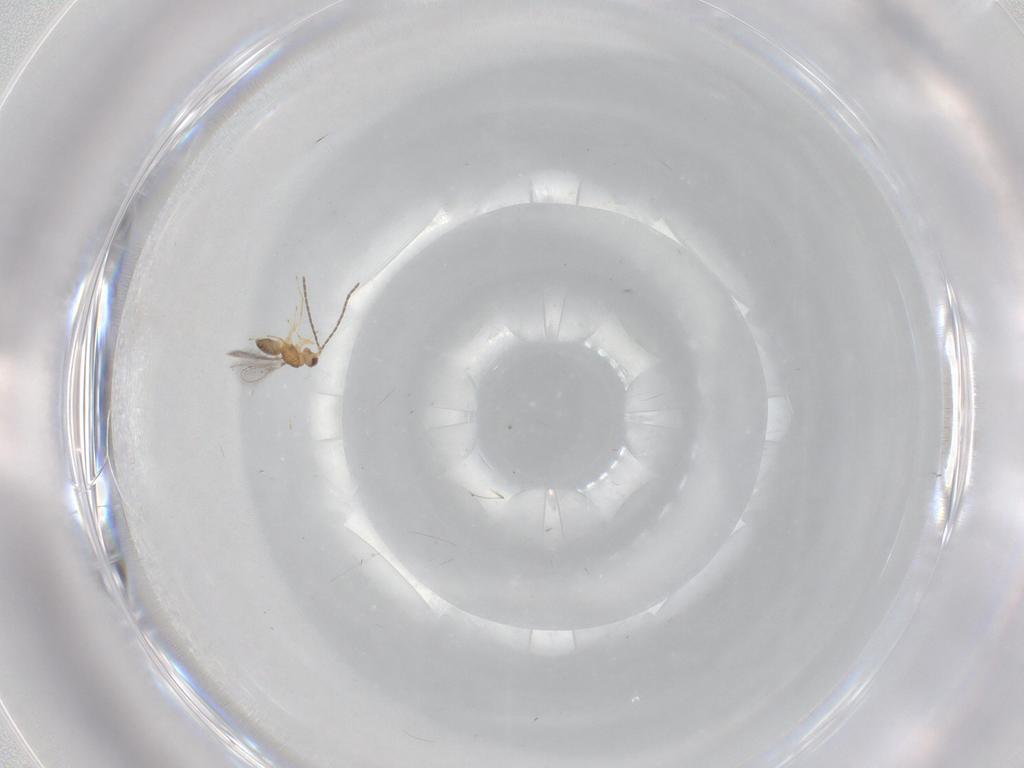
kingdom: Animalia
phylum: Arthropoda
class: Insecta
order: Hymenoptera
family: Mymaridae
